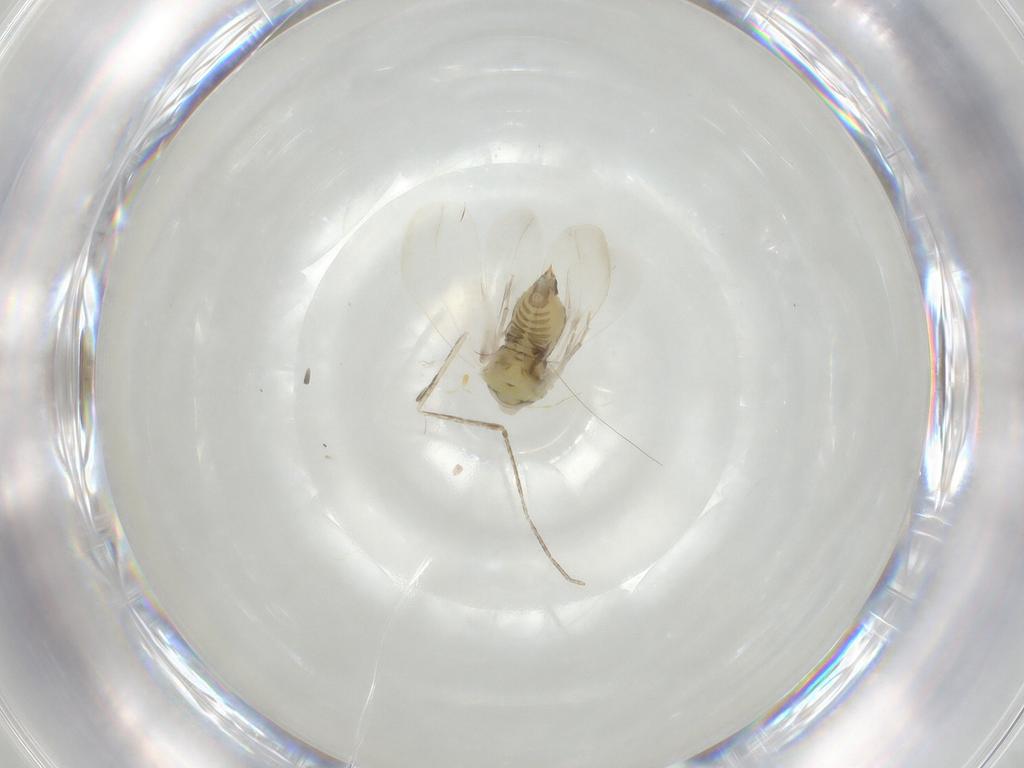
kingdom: Animalia
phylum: Arthropoda
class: Insecta
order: Hemiptera
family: Aleyrodidae
